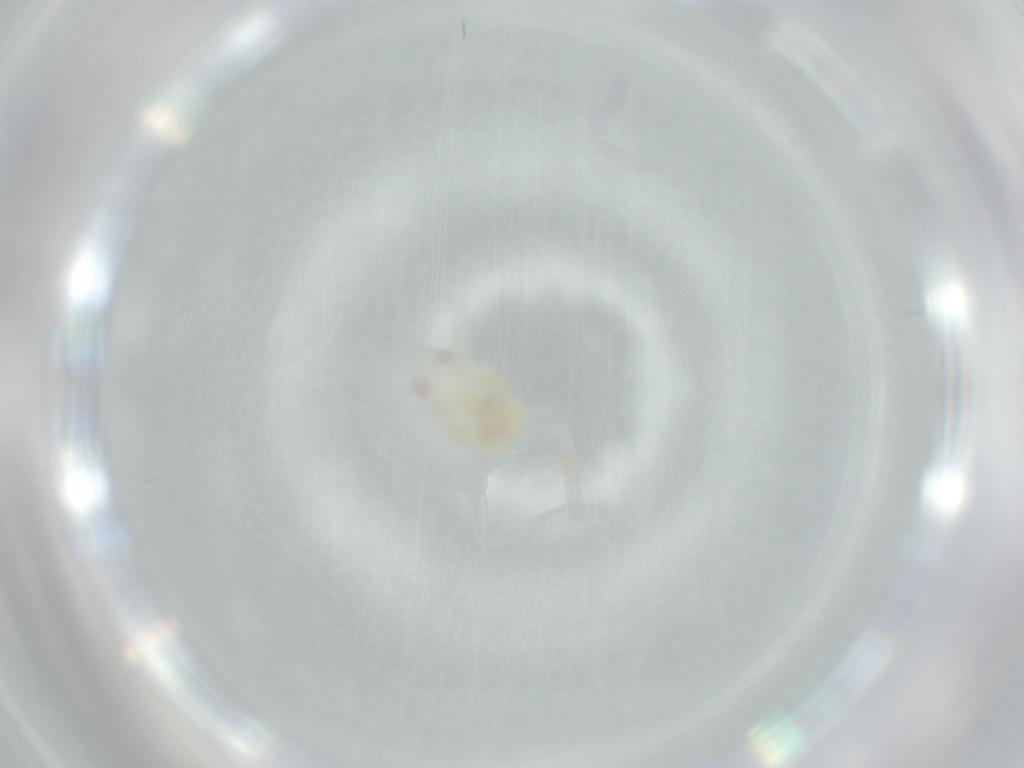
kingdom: Animalia
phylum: Arthropoda
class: Insecta
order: Hemiptera
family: Flatidae
